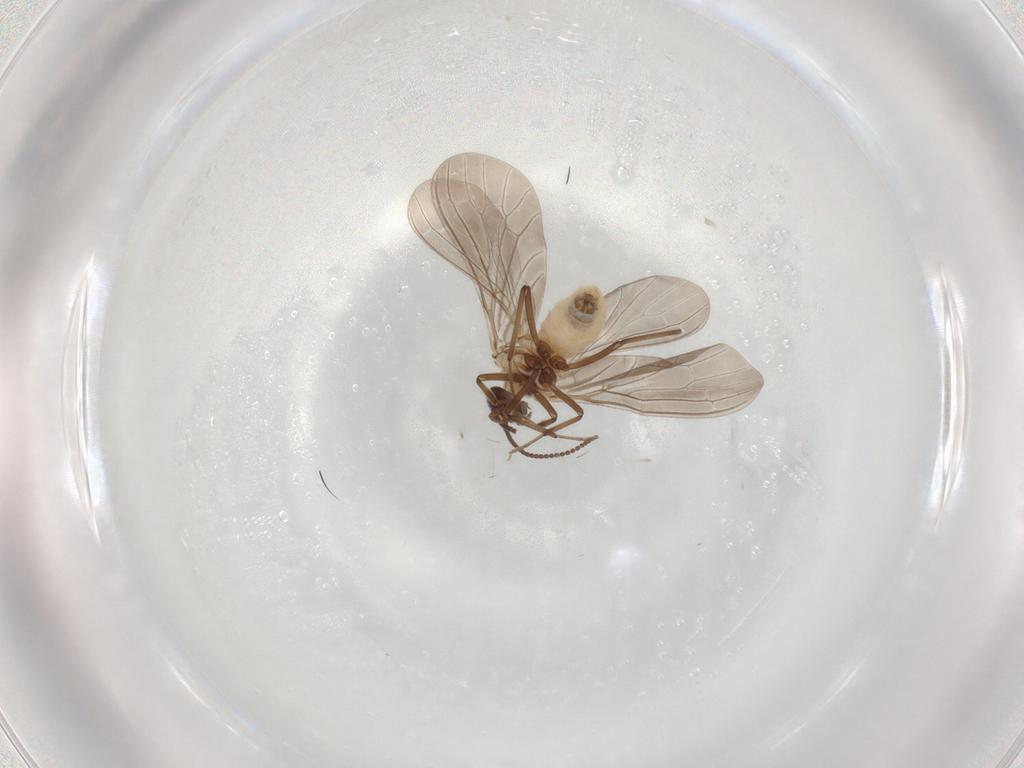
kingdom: Animalia
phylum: Arthropoda
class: Insecta
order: Neuroptera
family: Coniopterygidae
